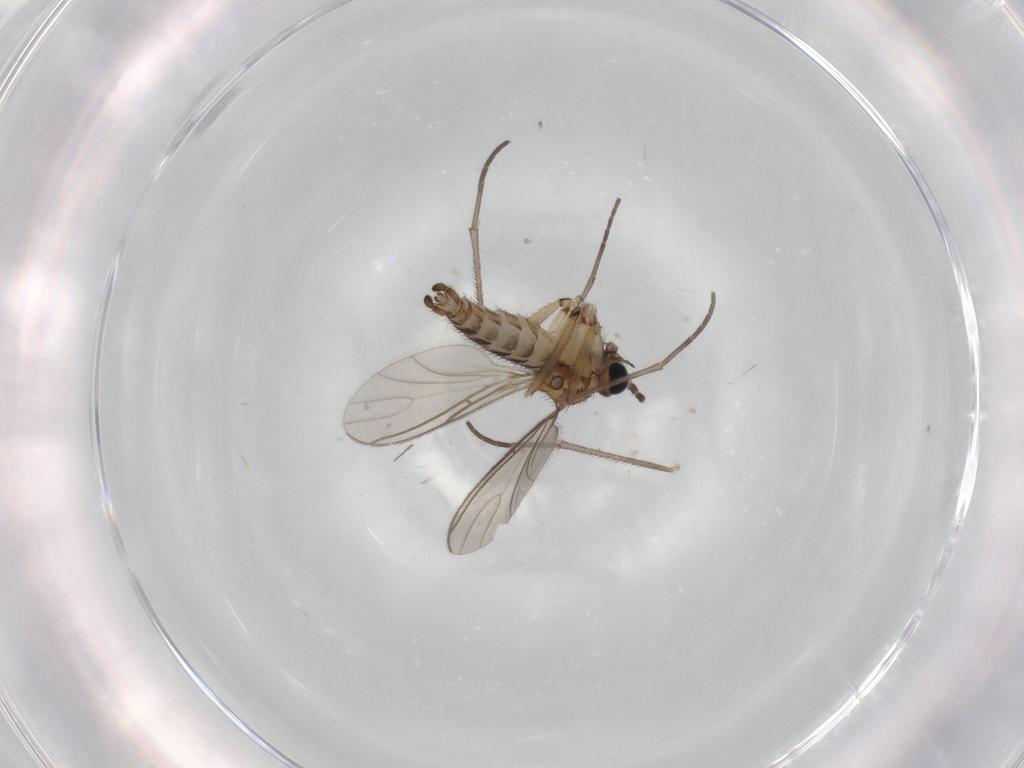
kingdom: Animalia
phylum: Arthropoda
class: Insecta
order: Diptera
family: Sciaridae
